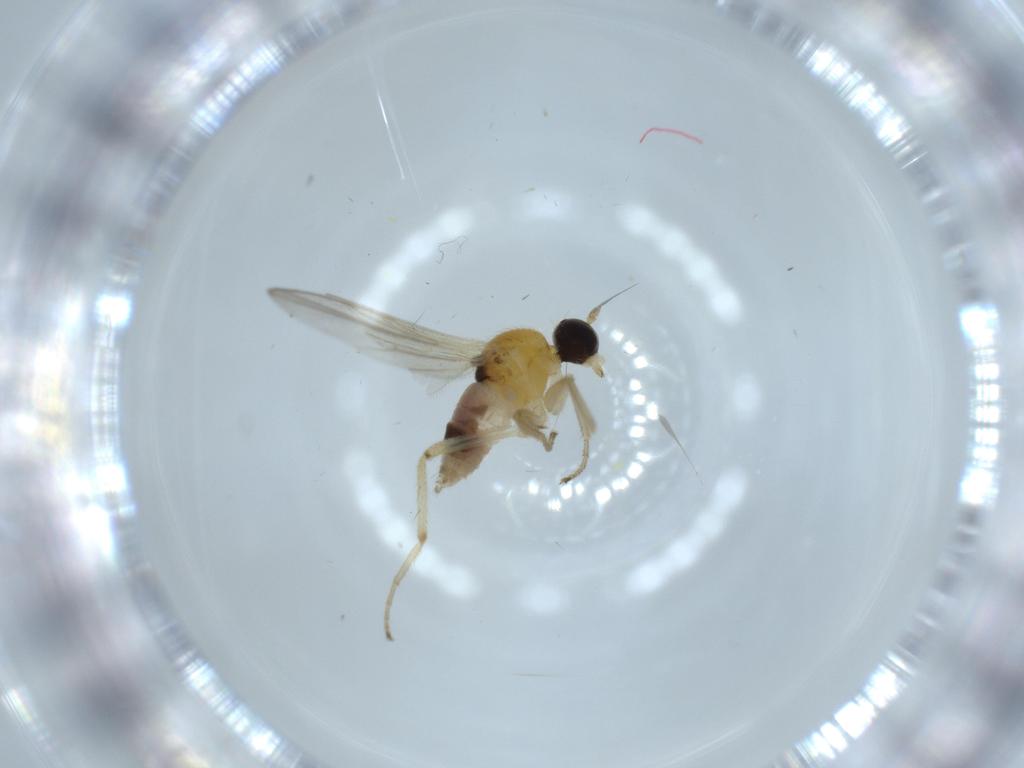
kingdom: Animalia
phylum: Arthropoda
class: Insecta
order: Diptera
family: Hybotidae
